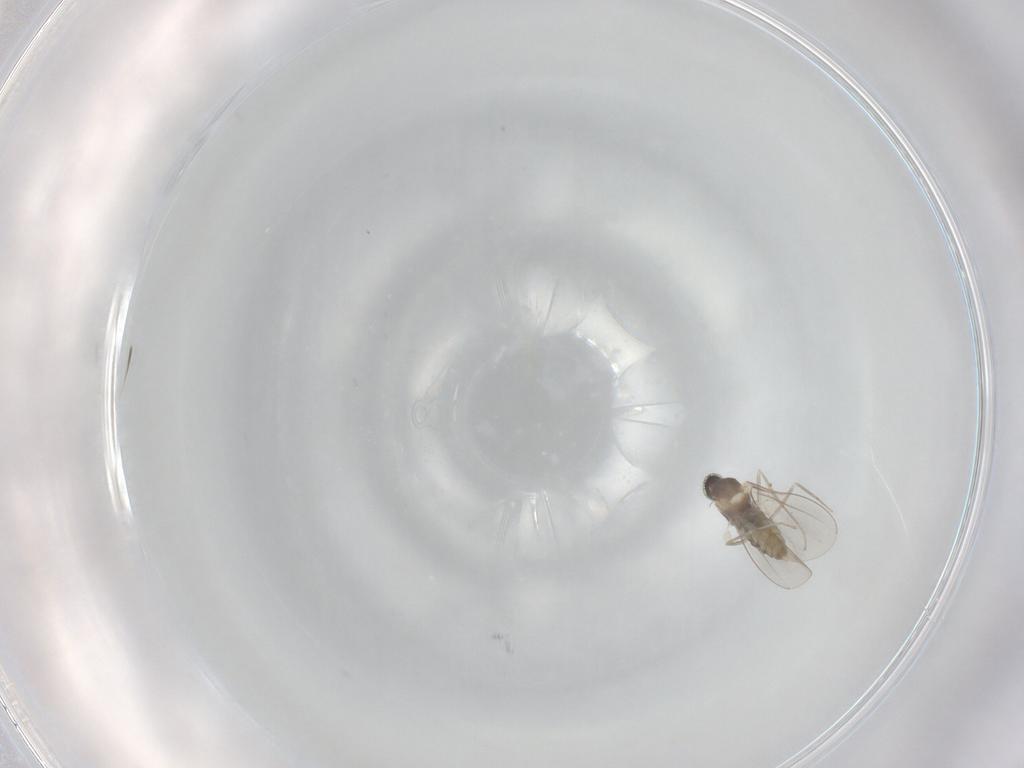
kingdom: Animalia
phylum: Arthropoda
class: Insecta
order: Diptera
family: Cecidomyiidae
